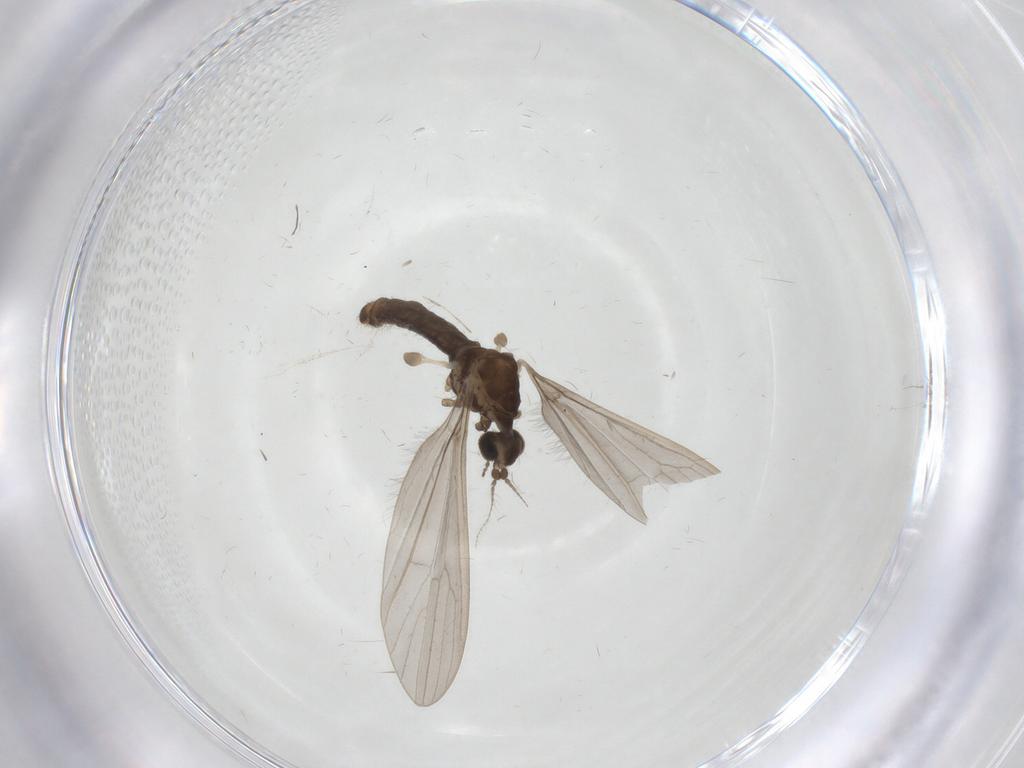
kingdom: Animalia
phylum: Arthropoda
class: Insecta
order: Diptera
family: Limoniidae
